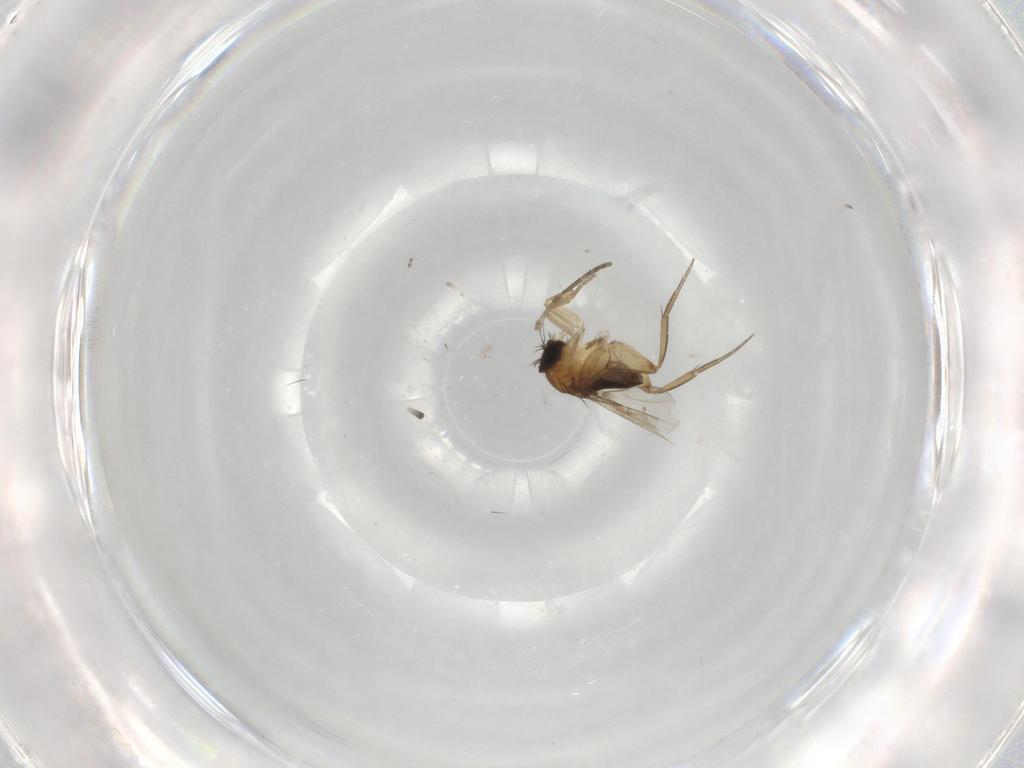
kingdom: Animalia
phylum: Arthropoda
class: Insecta
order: Diptera
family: Phoridae
